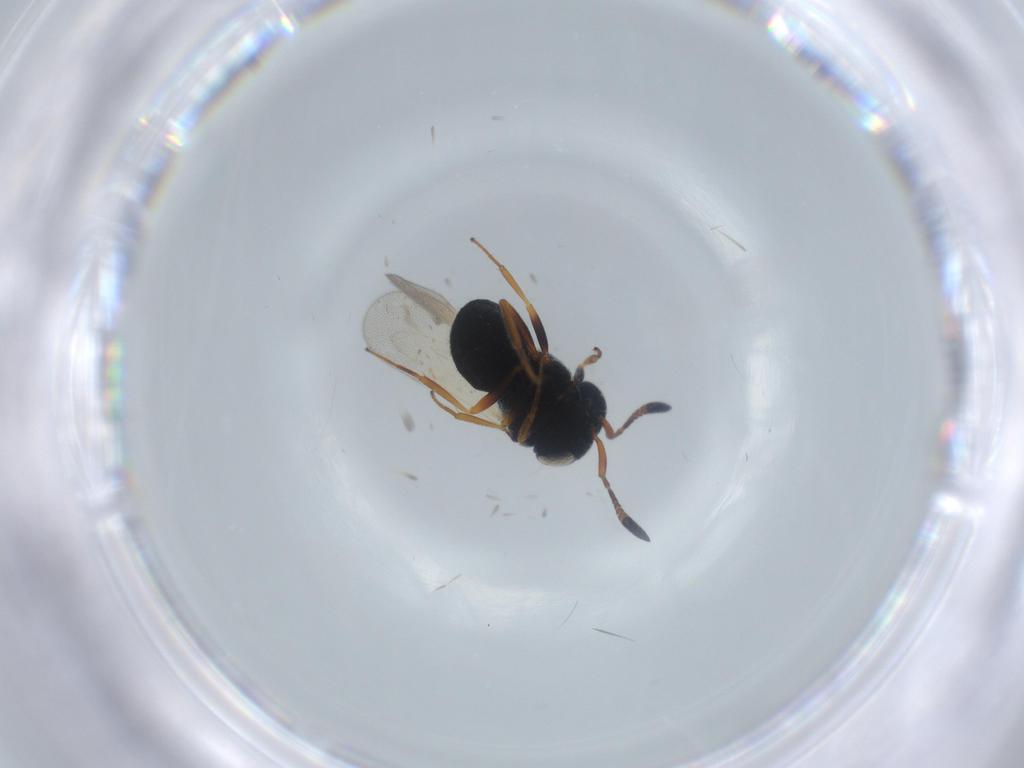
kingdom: Animalia
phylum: Arthropoda
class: Insecta
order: Hymenoptera
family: Scelionidae
